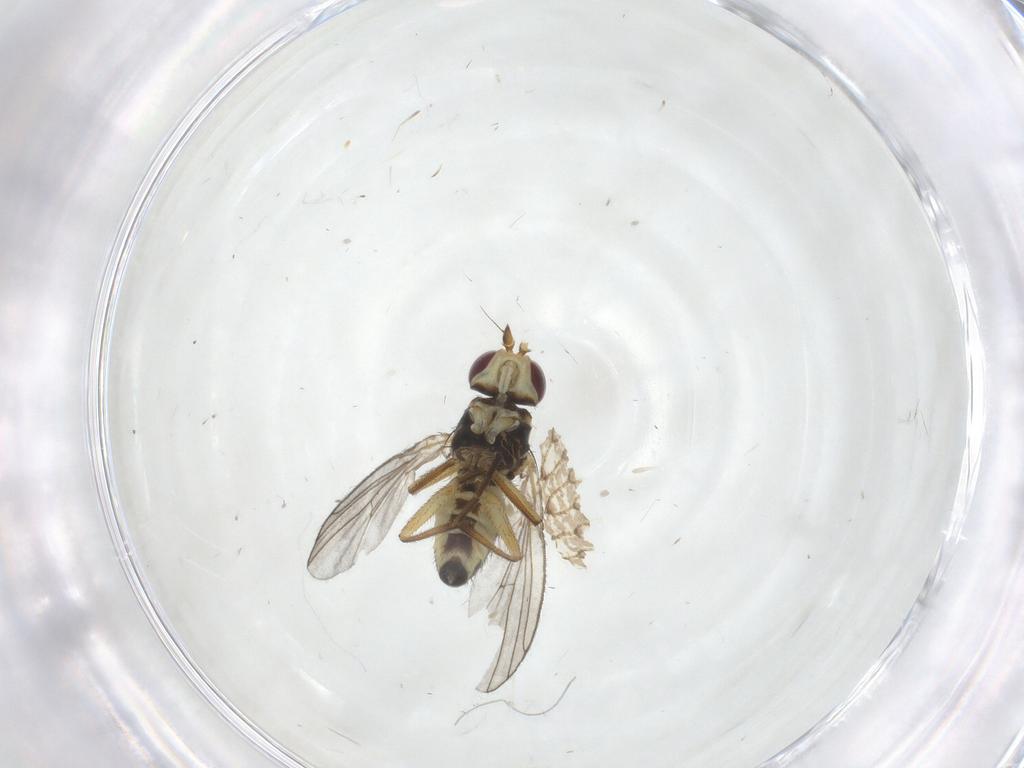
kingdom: Animalia
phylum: Arthropoda
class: Insecta
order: Diptera
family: Agromyzidae
